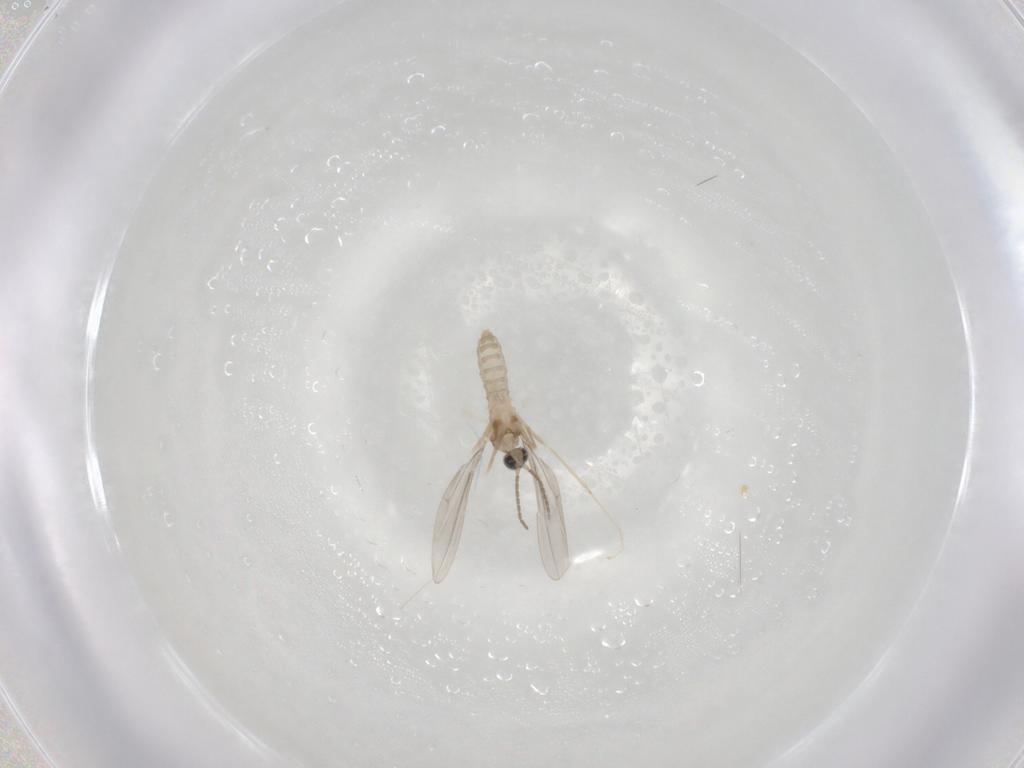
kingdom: Animalia
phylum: Arthropoda
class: Insecta
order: Diptera
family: Cecidomyiidae
